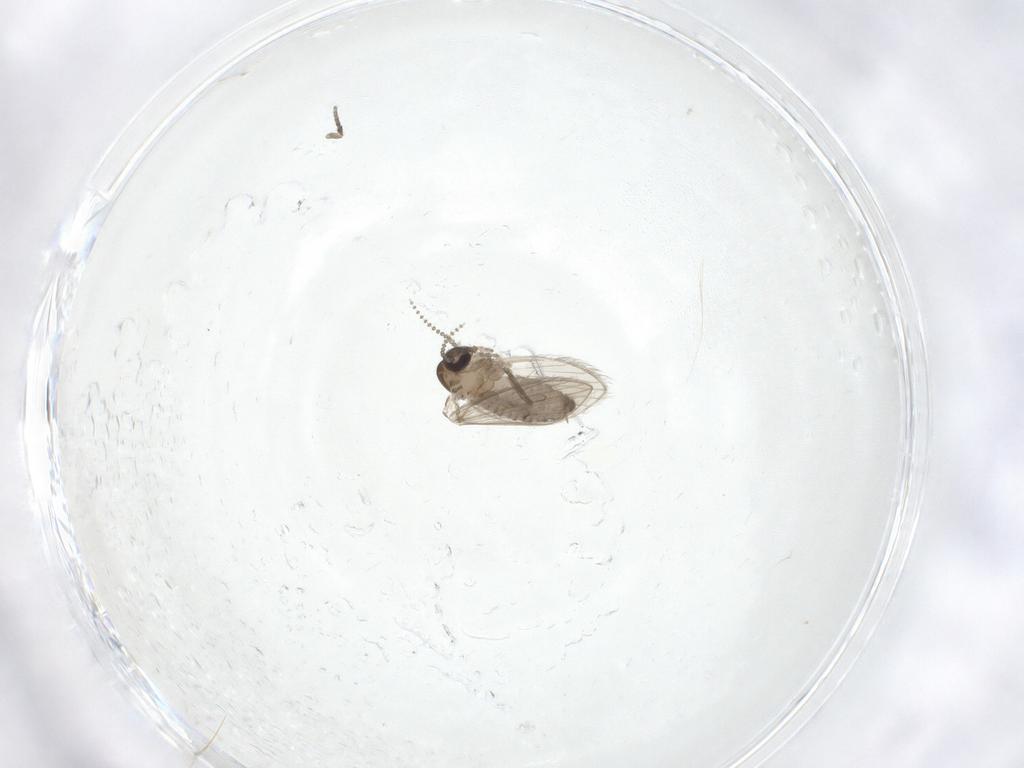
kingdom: Animalia
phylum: Arthropoda
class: Insecta
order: Diptera
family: Psychodidae
